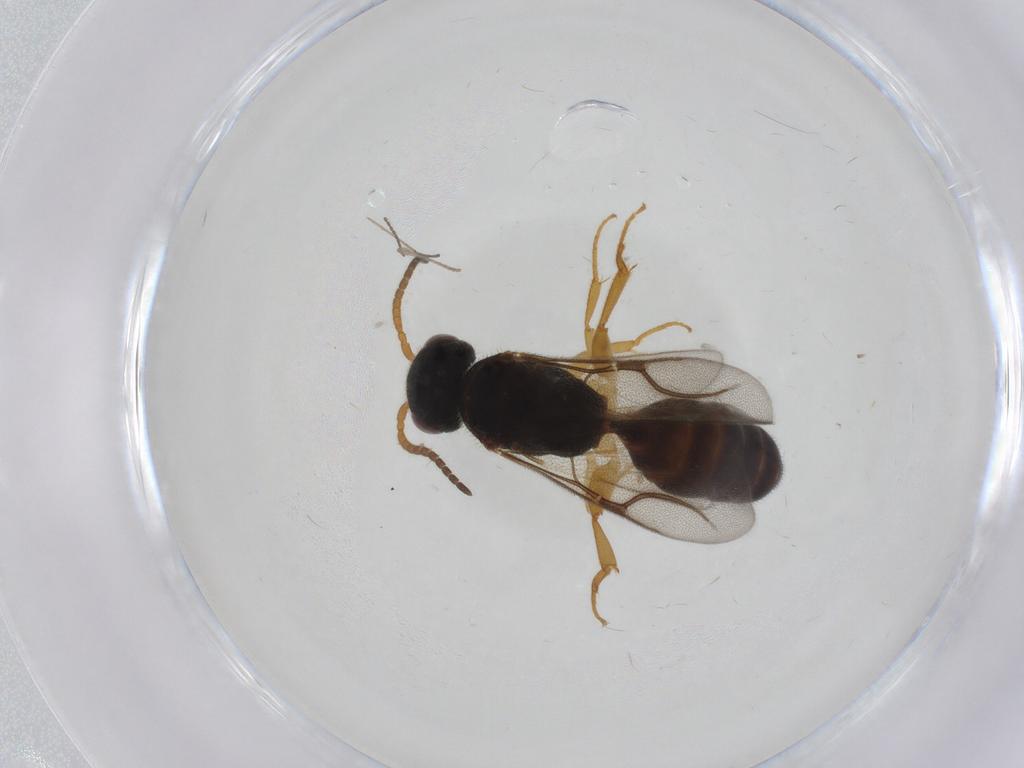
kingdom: Animalia
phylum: Arthropoda
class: Insecta
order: Hymenoptera
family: Bethylidae
